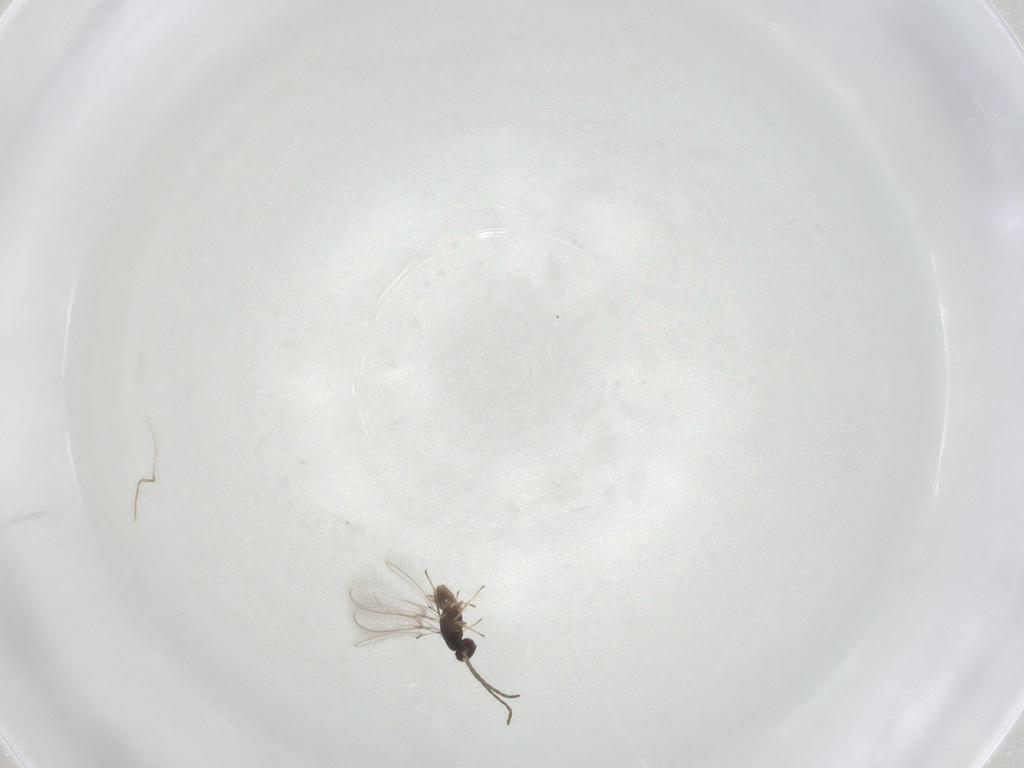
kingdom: Animalia
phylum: Arthropoda
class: Insecta
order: Hymenoptera
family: Mymaridae
